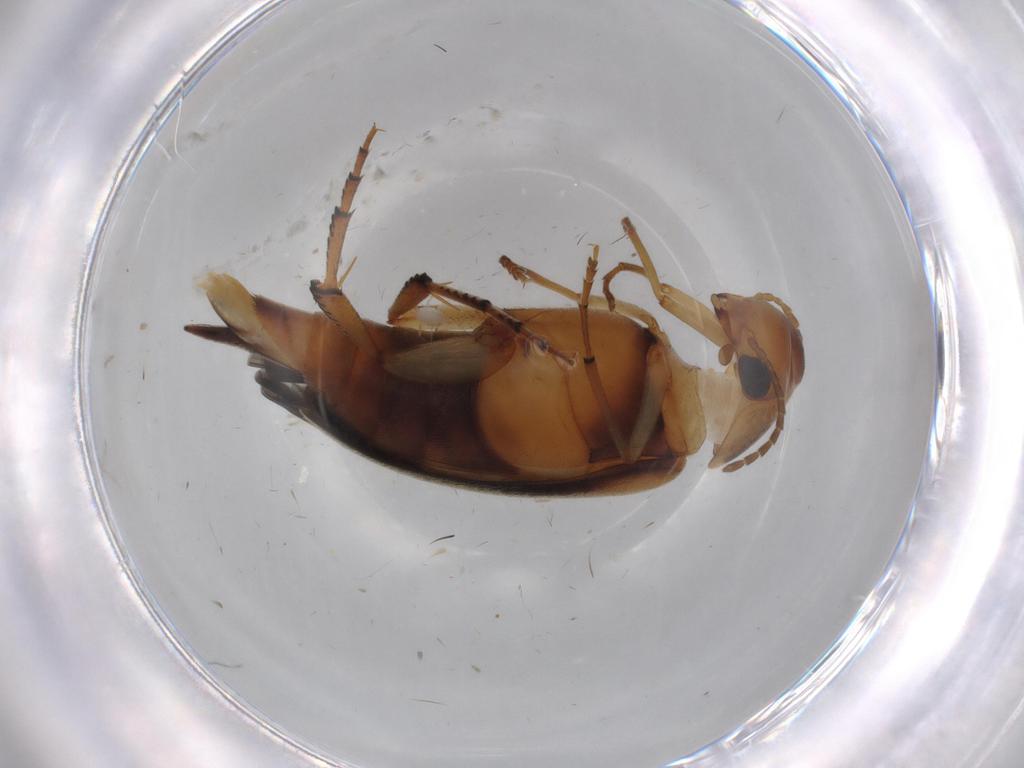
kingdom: Animalia
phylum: Arthropoda
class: Insecta
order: Coleoptera
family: Mordellidae
